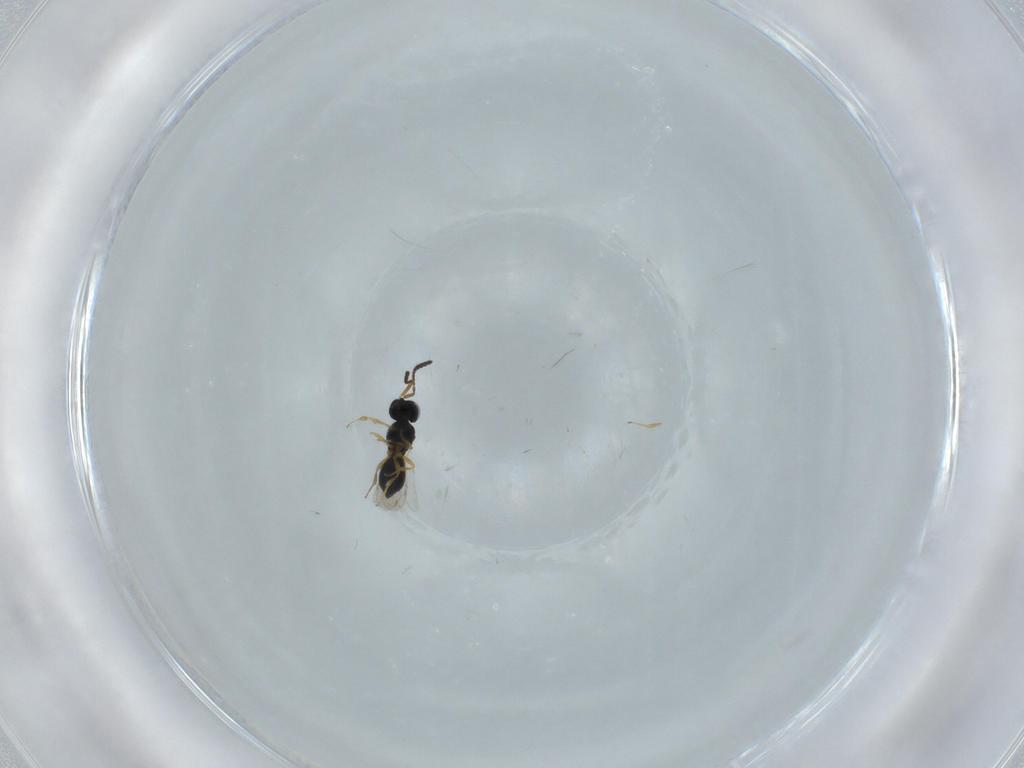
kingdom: Animalia
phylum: Arthropoda
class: Insecta
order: Hymenoptera
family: Scelionidae
